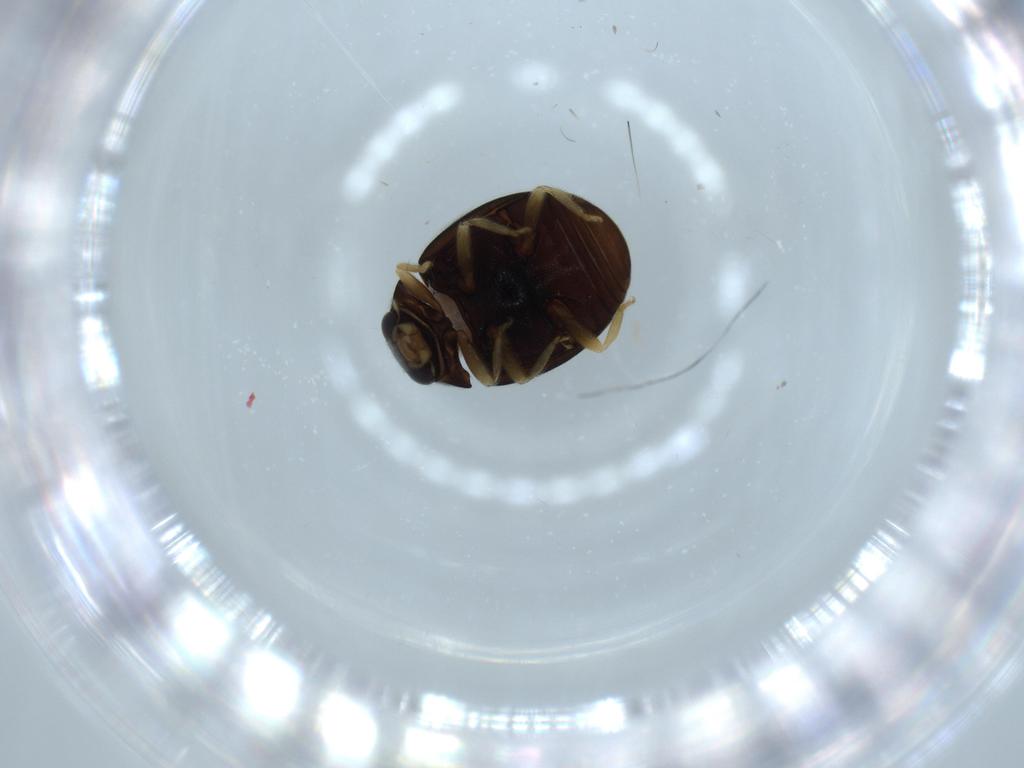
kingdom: Animalia
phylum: Arthropoda
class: Insecta
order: Coleoptera
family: Coccinellidae
